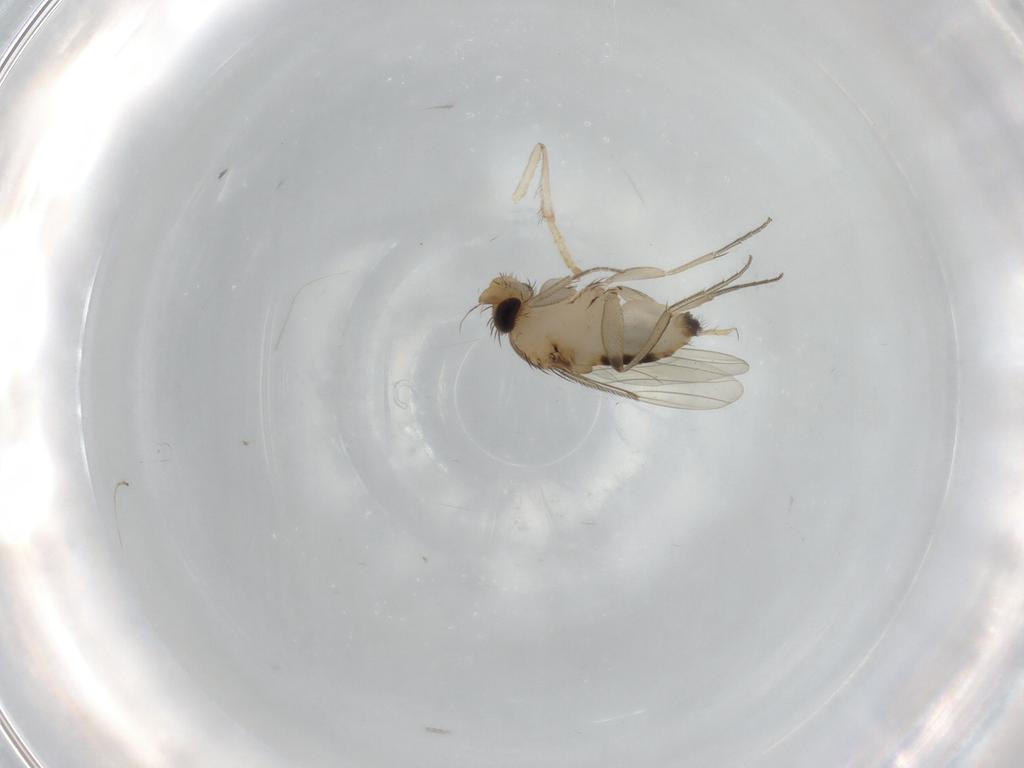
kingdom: Animalia
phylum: Arthropoda
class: Insecta
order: Diptera
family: Phoridae
